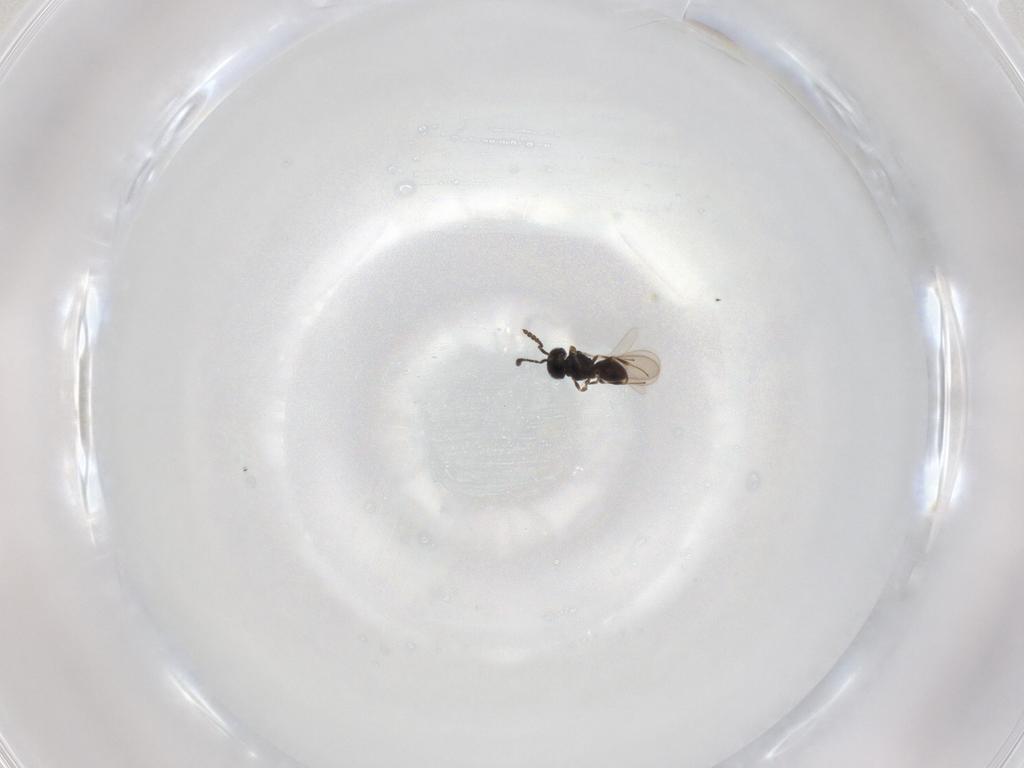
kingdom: Animalia
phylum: Arthropoda
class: Insecta
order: Hymenoptera
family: Scelionidae
